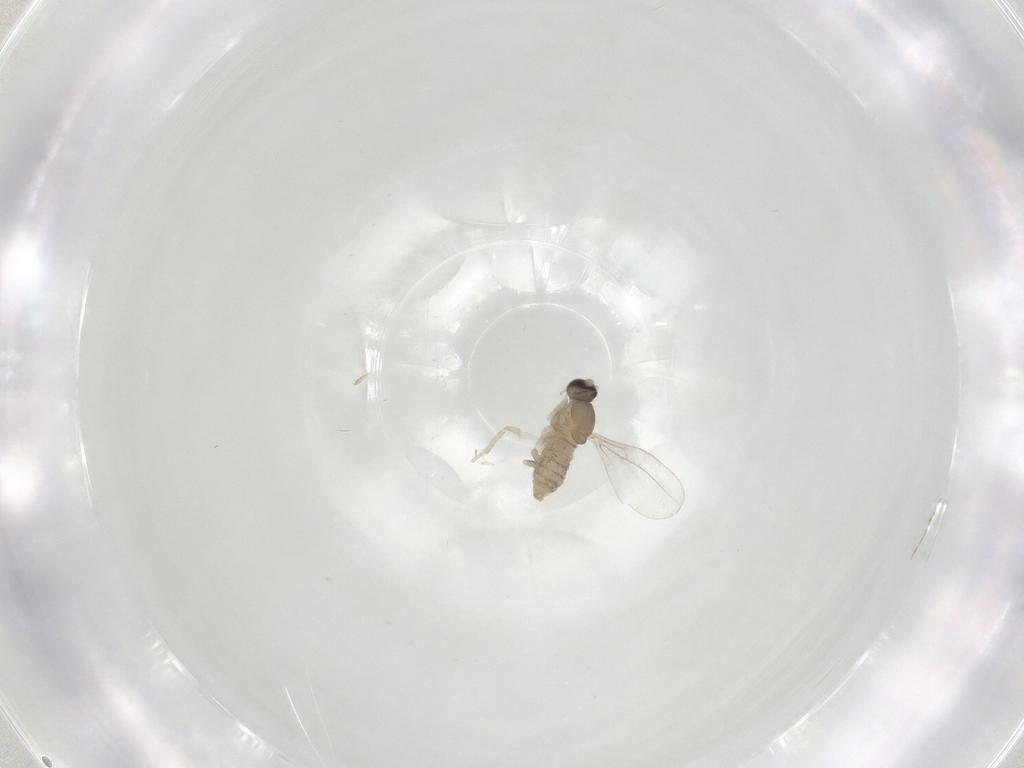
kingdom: Animalia
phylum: Arthropoda
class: Insecta
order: Diptera
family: Cecidomyiidae
